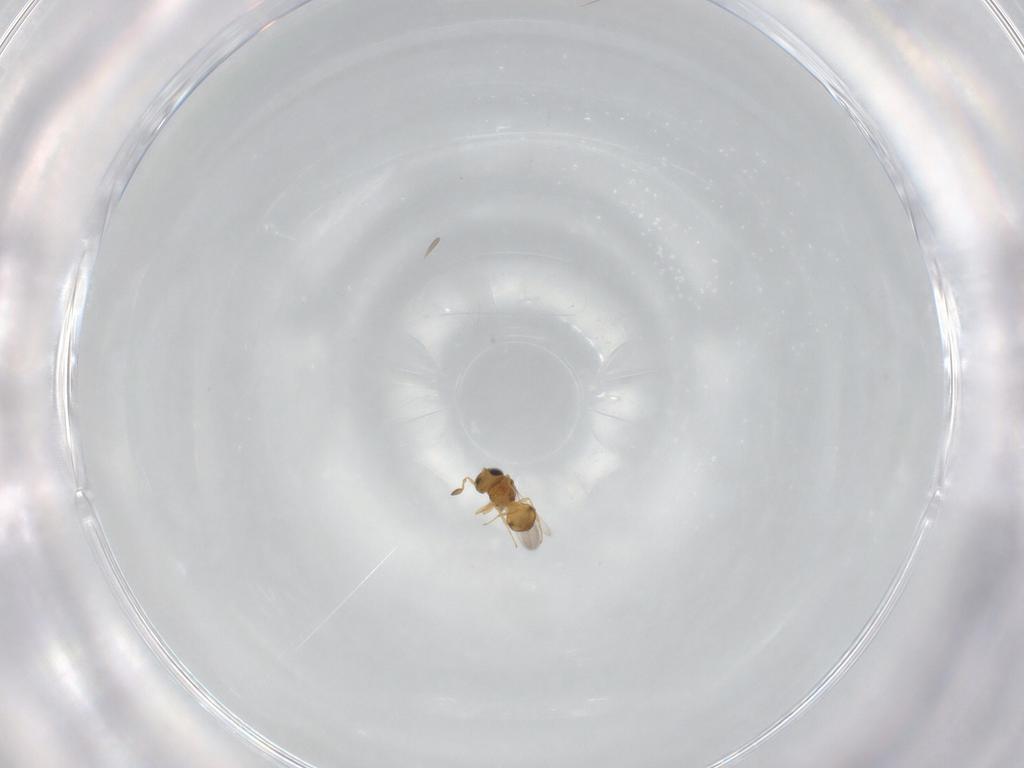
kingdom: Animalia
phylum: Arthropoda
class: Insecta
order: Hymenoptera
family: Scelionidae
